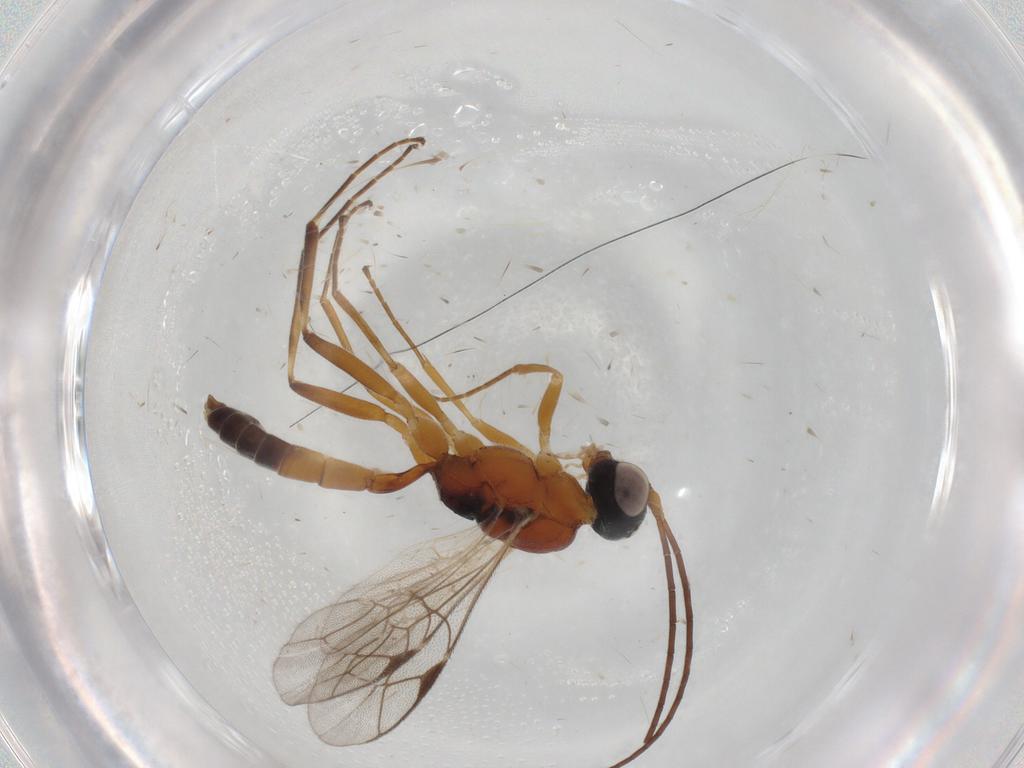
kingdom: Animalia
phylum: Arthropoda
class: Insecta
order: Hymenoptera
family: Ichneumonidae
